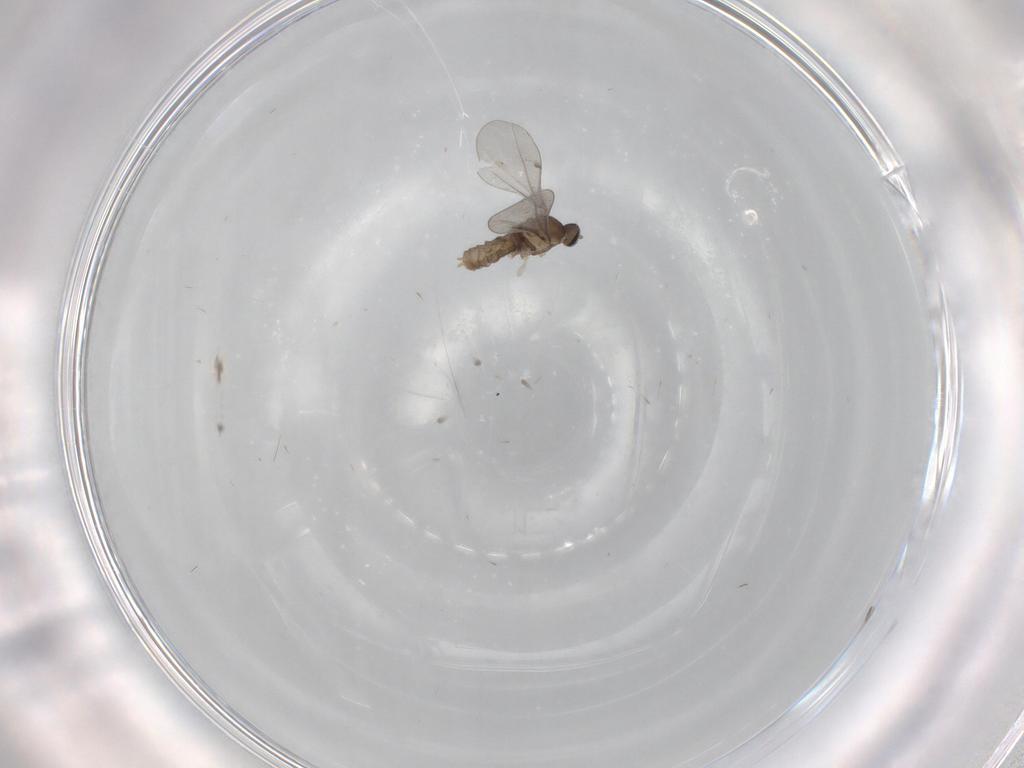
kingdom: Animalia
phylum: Arthropoda
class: Insecta
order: Diptera
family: Cecidomyiidae
